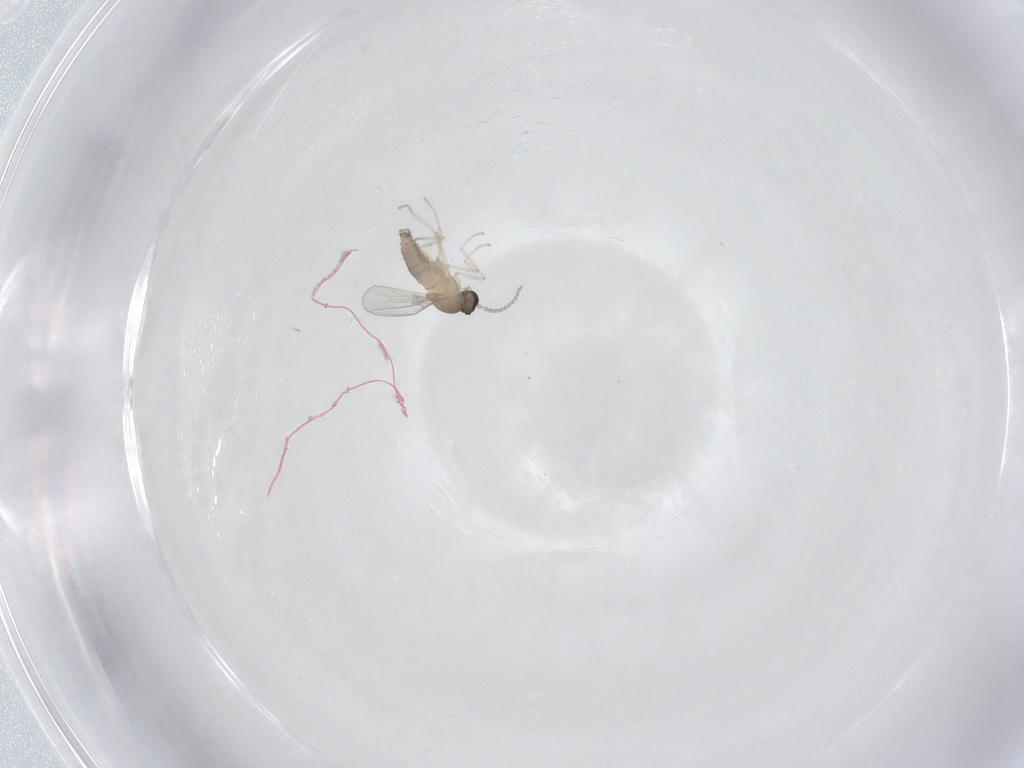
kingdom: Animalia
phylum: Arthropoda
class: Insecta
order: Diptera
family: Cecidomyiidae
